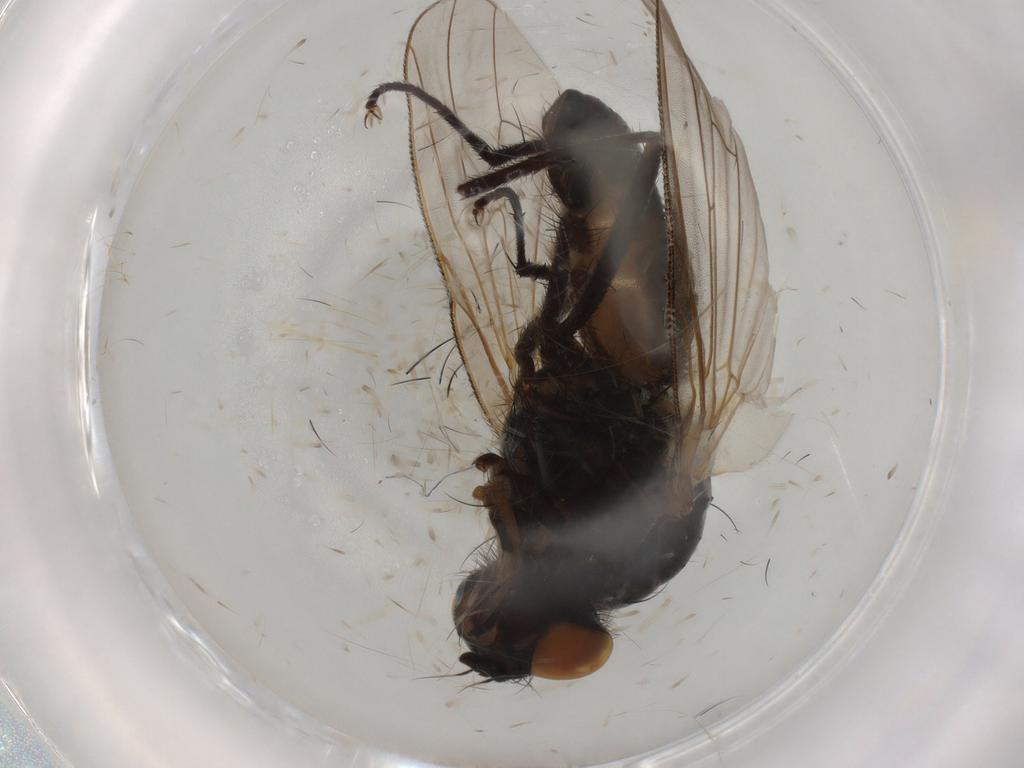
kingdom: Animalia
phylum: Arthropoda
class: Insecta
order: Diptera
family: Anthomyiidae
